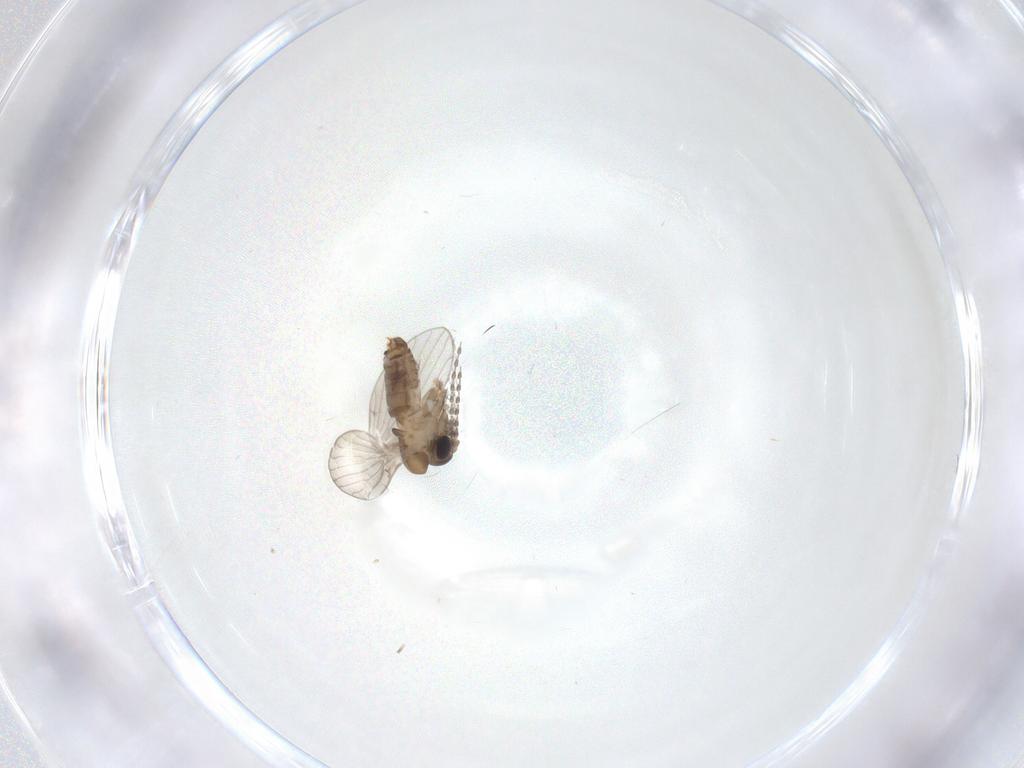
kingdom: Animalia
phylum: Arthropoda
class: Insecta
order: Diptera
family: Psychodidae
